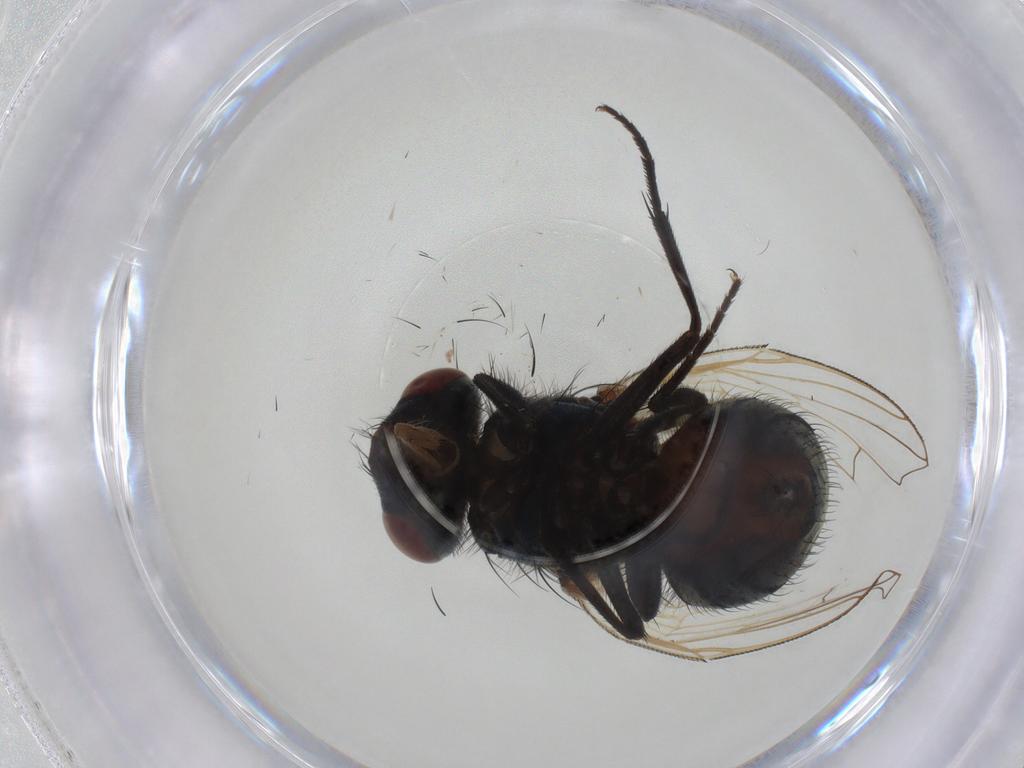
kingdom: Animalia
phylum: Arthropoda
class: Insecta
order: Diptera
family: Muscidae
